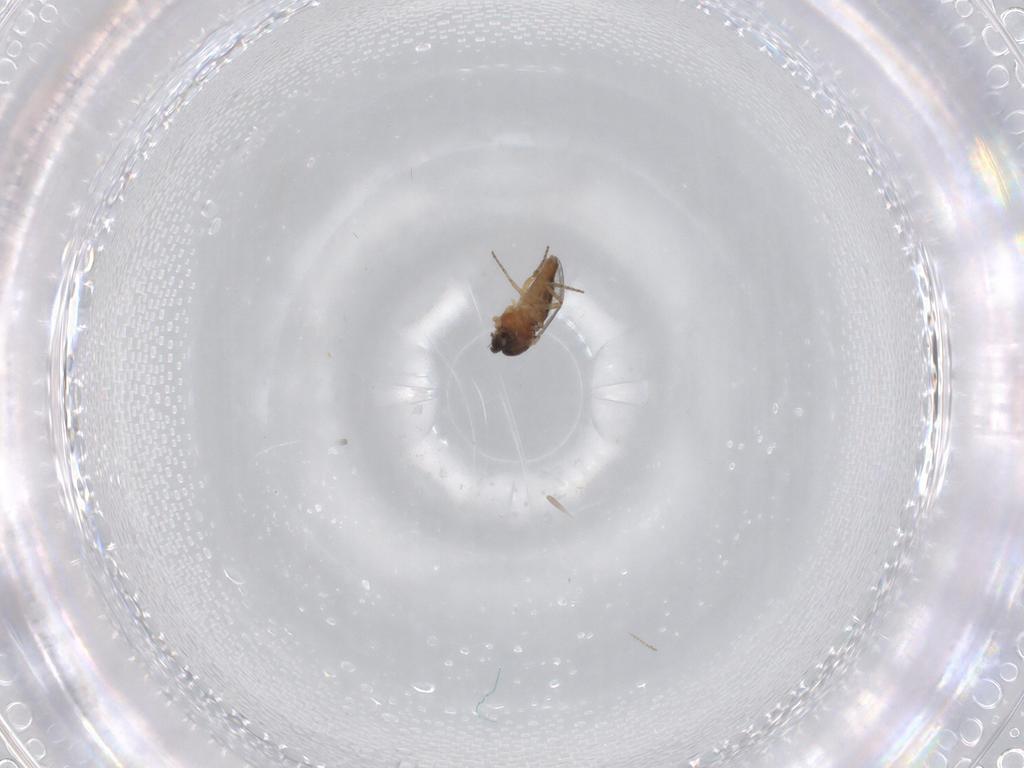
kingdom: Animalia
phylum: Arthropoda
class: Insecta
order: Diptera
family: Ceratopogonidae
